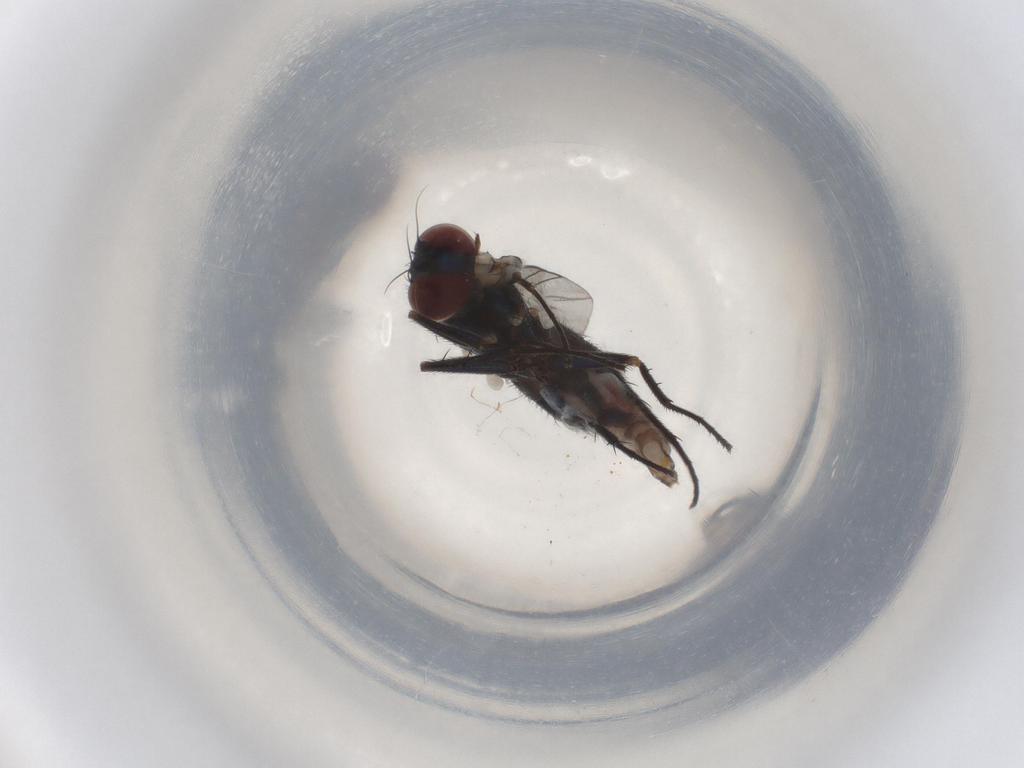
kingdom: Animalia
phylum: Arthropoda
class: Insecta
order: Diptera
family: Dolichopodidae
